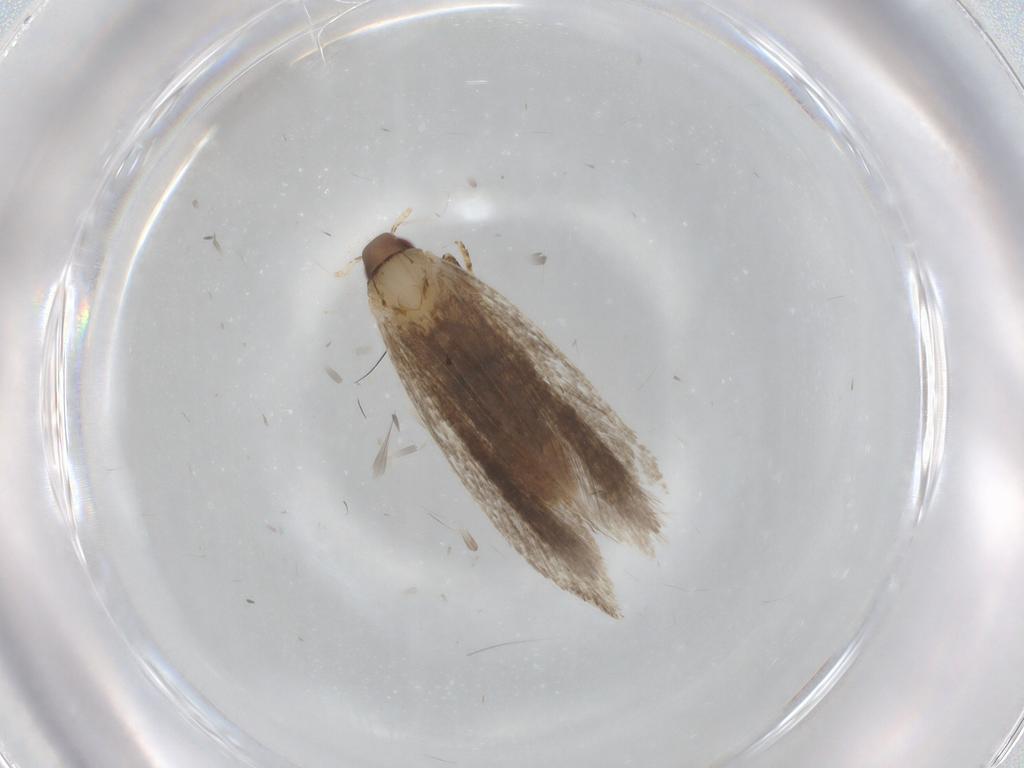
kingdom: Animalia
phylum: Arthropoda
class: Insecta
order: Lepidoptera
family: Gelechiidae
